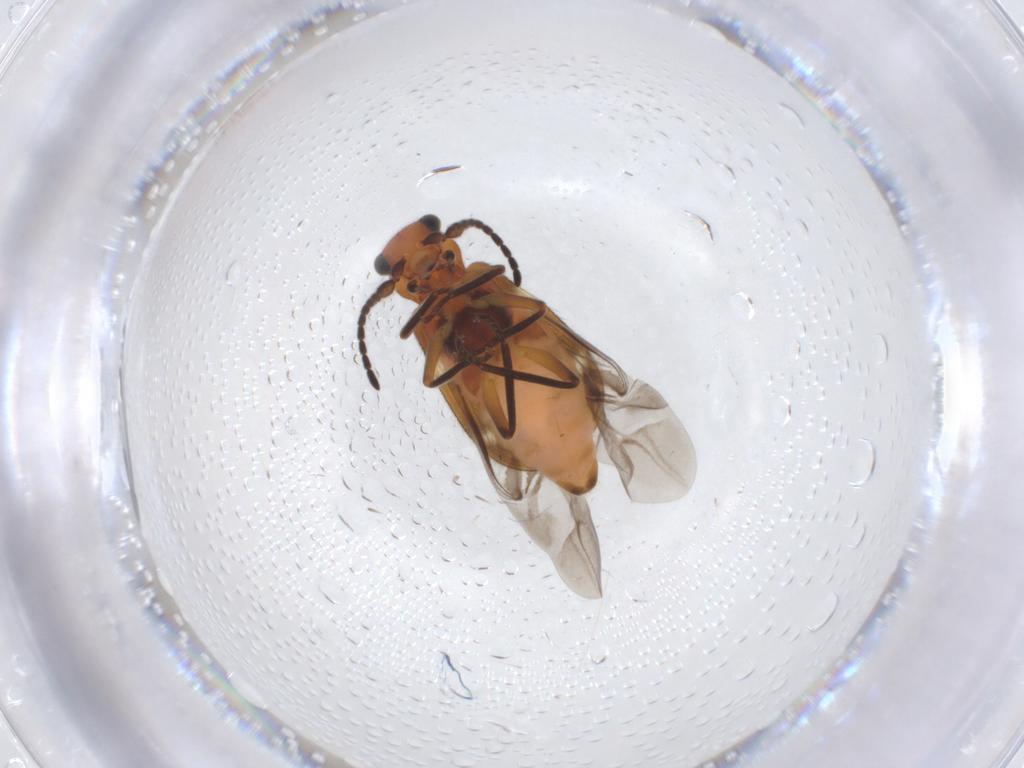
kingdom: Animalia
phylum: Arthropoda
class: Insecta
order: Coleoptera
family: Melyridae
